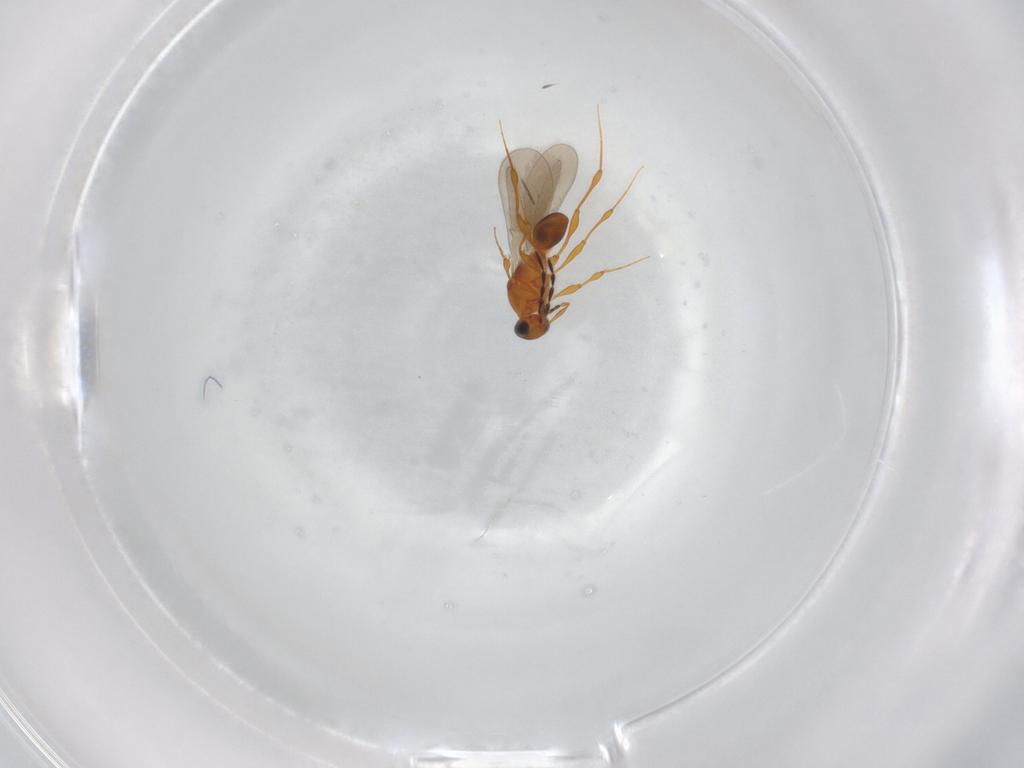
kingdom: Animalia
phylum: Arthropoda
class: Insecta
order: Hymenoptera
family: Platygastridae
